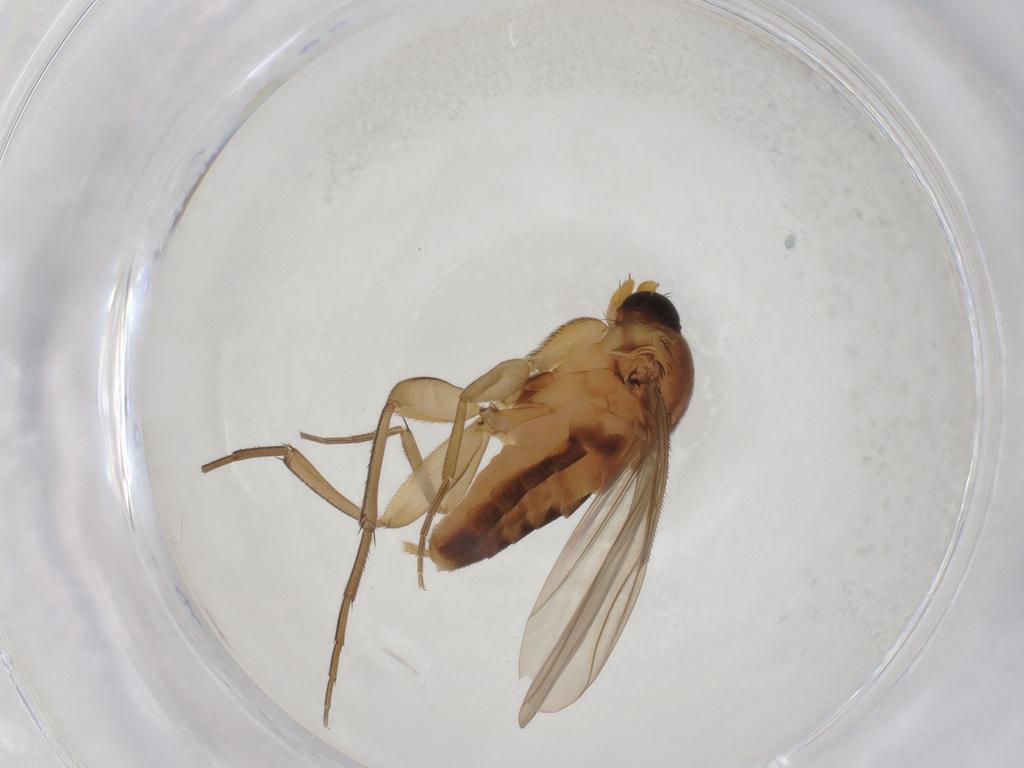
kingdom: Animalia
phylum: Arthropoda
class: Insecta
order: Diptera
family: Phoridae
